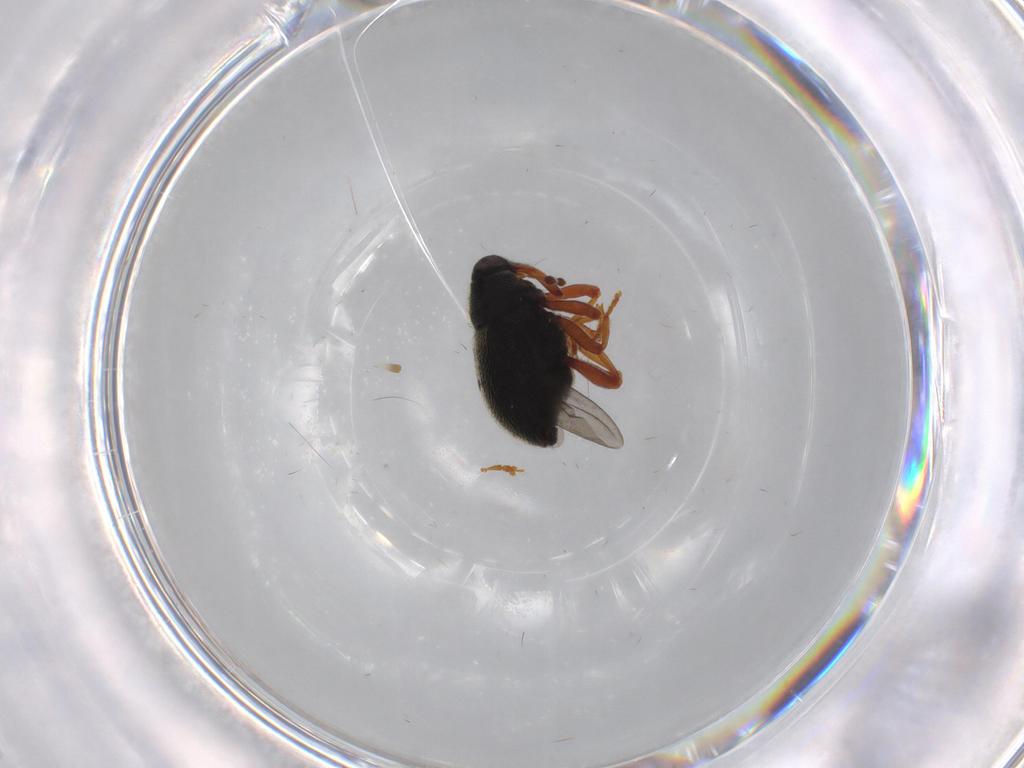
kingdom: Animalia
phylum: Arthropoda
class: Insecta
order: Coleoptera
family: Curculionidae
